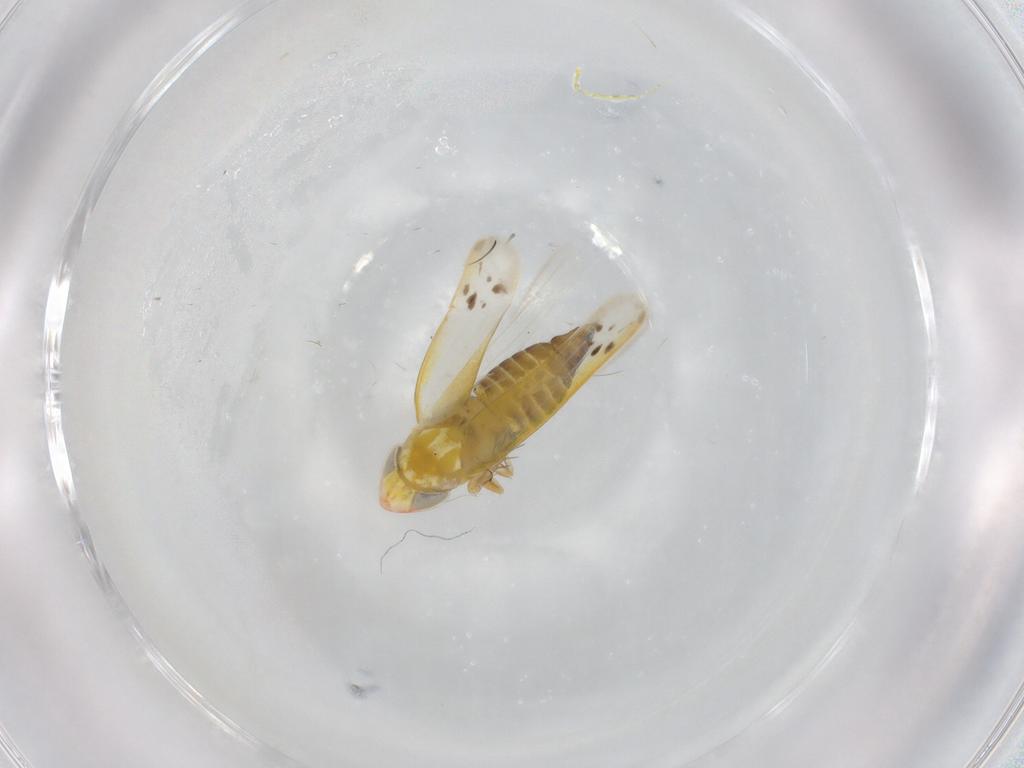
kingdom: Animalia
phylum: Arthropoda
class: Insecta
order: Hemiptera
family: Cicadellidae
